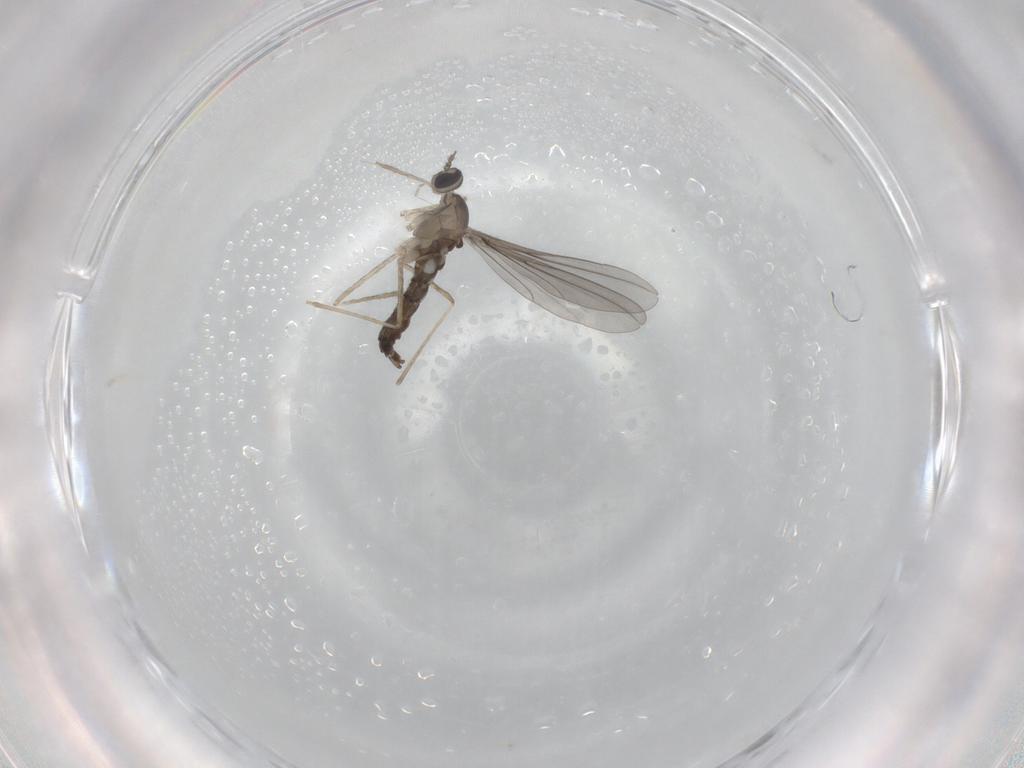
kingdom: Animalia
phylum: Arthropoda
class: Insecta
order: Diptera
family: Cecidomyiidae
